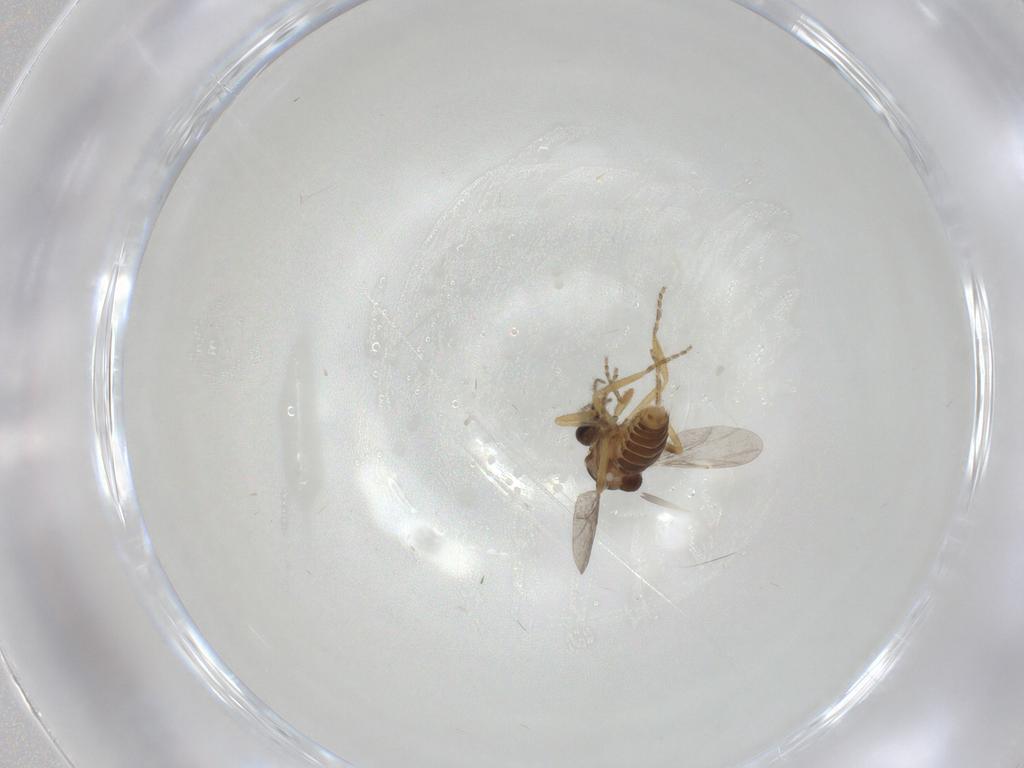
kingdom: Animalia
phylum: Arthropoda
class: Insecta
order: Diptera
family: Ceratopogonidae
